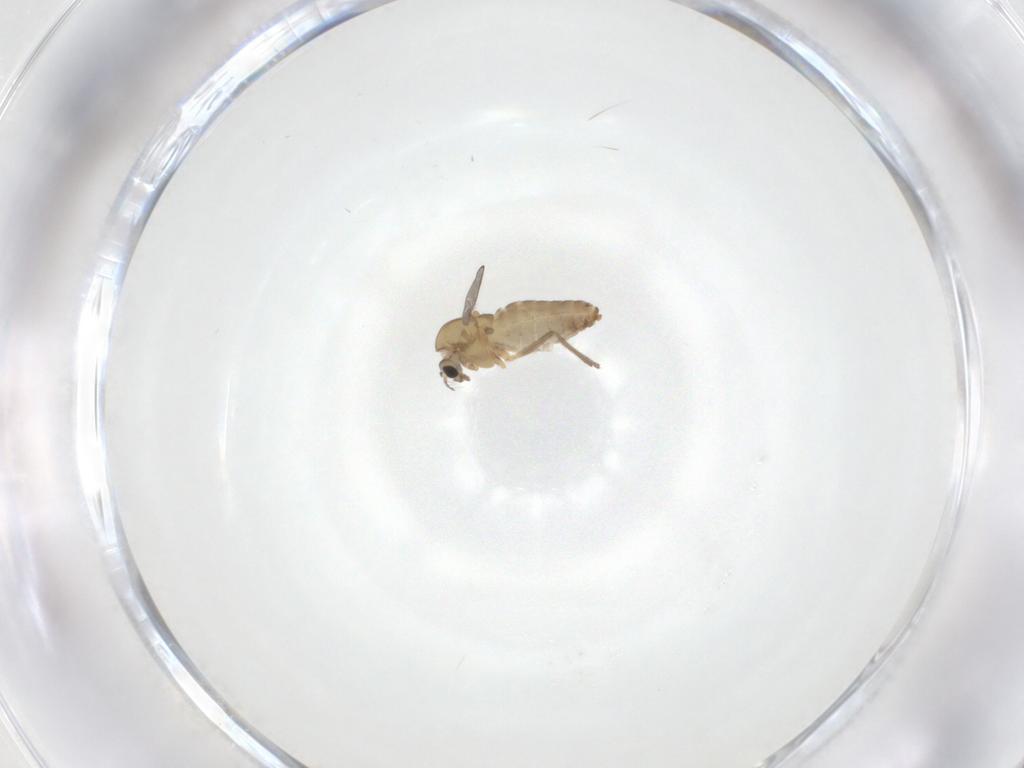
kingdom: Animalia
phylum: Arthropoda
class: Insecta
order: Diptera
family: Chironomidae
